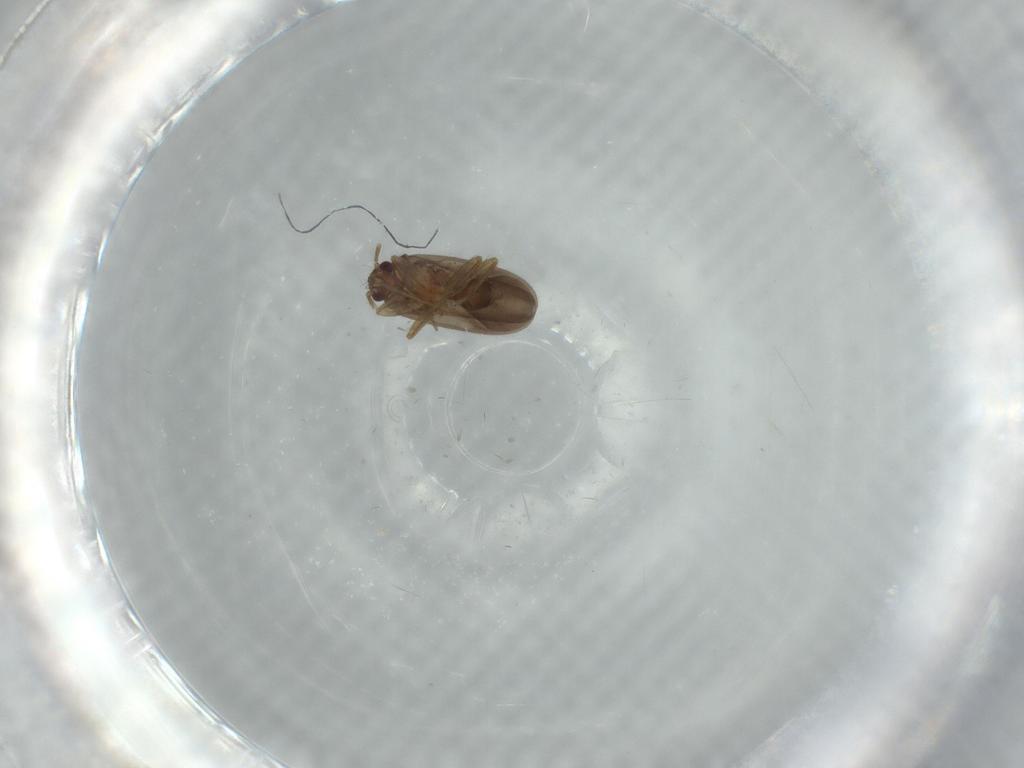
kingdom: Animalia
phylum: Arthropoda
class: Insecta
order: Hemiptera
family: Ceratocombidae
